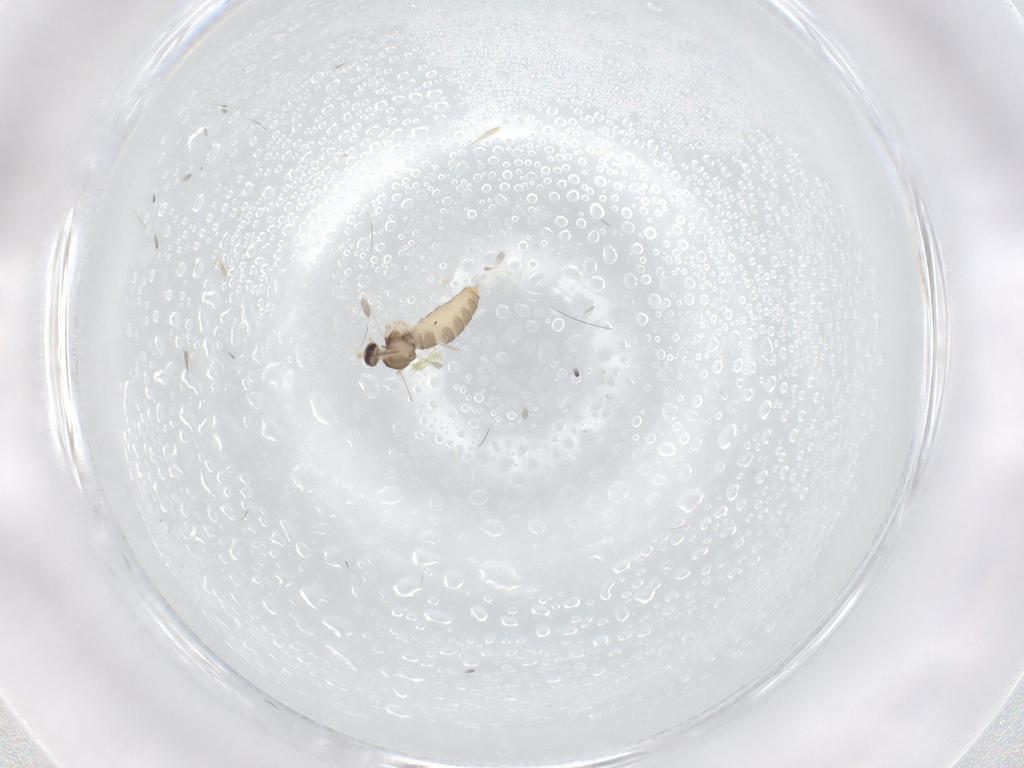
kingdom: Animalia
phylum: Arthropoda
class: Insecta
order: Diptera
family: Cecidomyiidae
